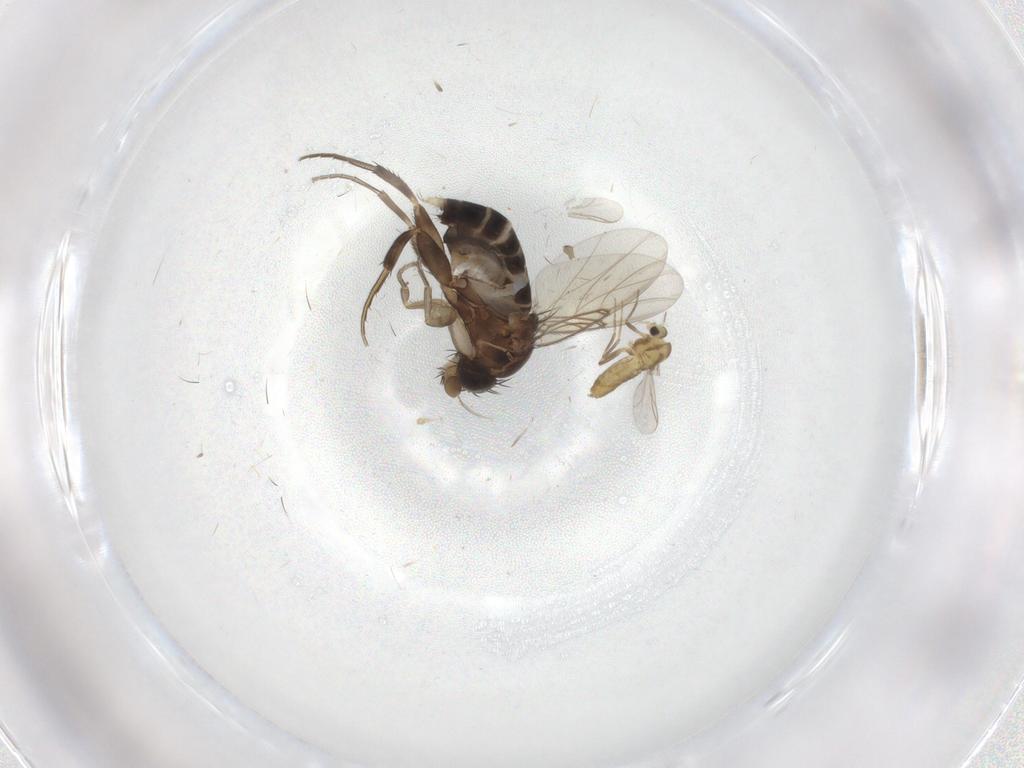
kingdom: Animalia
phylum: Arthropoda
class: Insecta
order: Diptera
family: Phoridae
